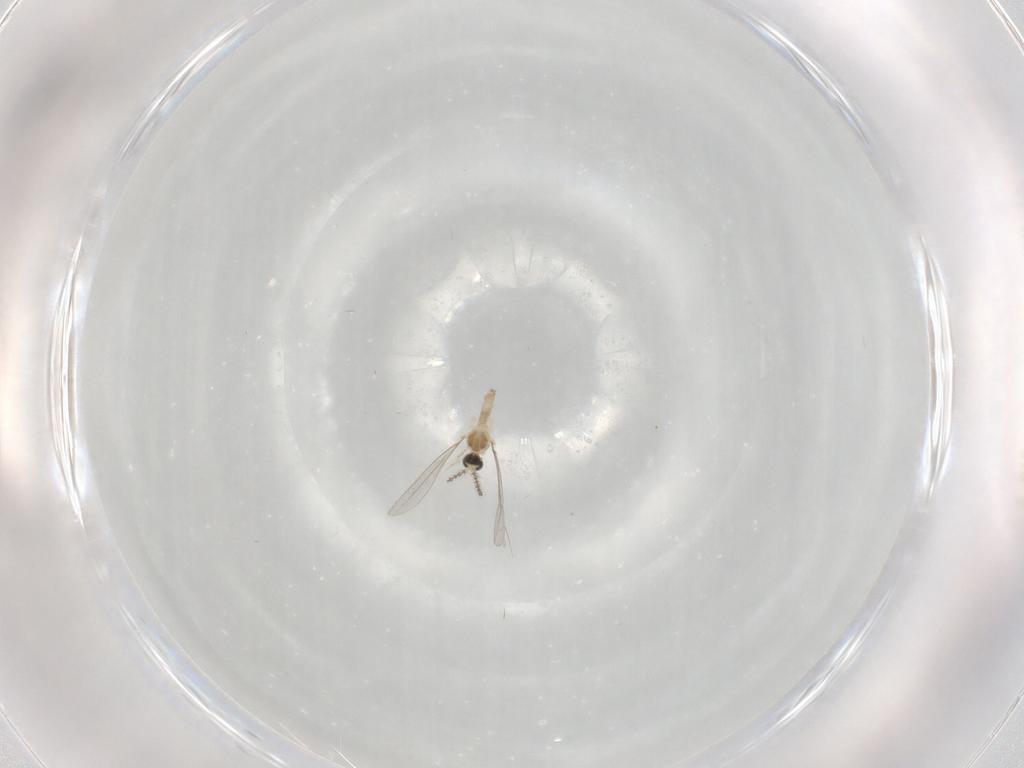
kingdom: Animalia
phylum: Arthropoda
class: Insecta
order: Diptera
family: Cecidomyiidae
